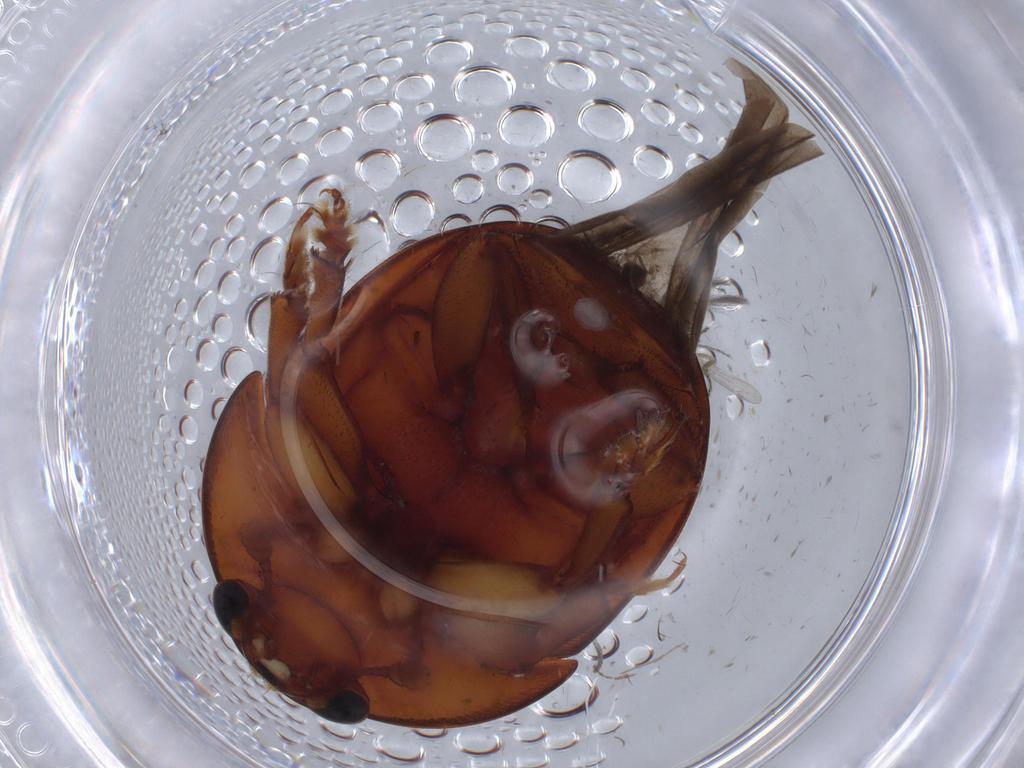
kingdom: Animalia
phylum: Arthropoda
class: Insecta
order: Coleoptera
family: Nitidulidae
